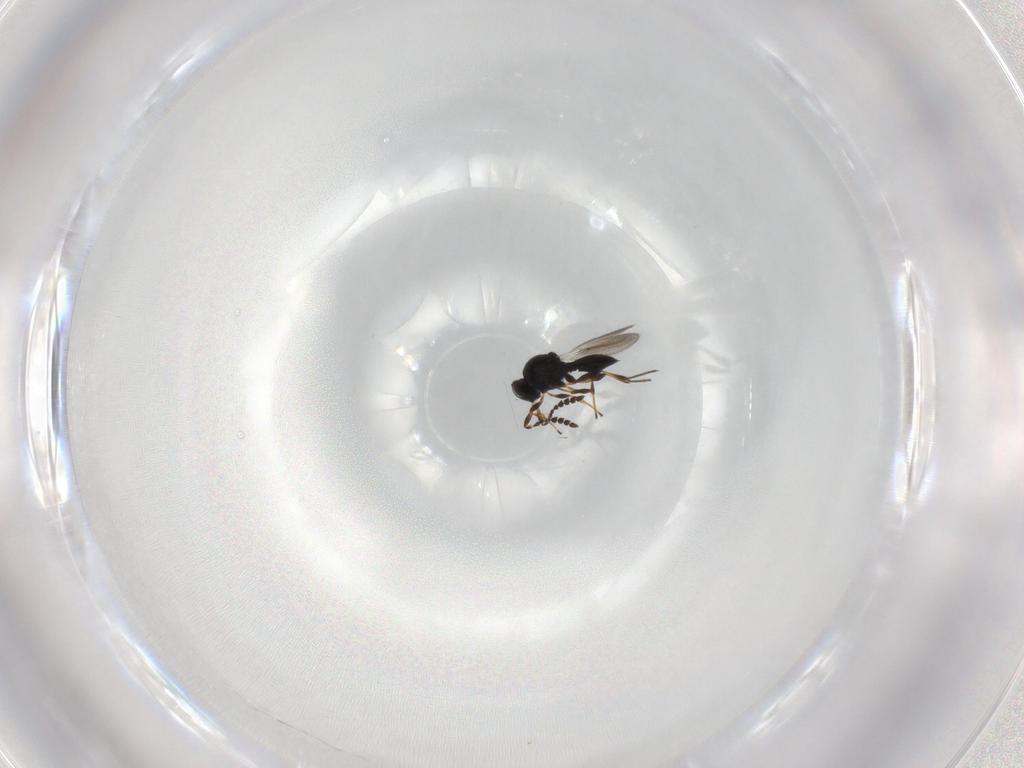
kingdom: Animalia
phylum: Arthropoda
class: Insecta
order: Hymenoptera
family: Platygastridae
